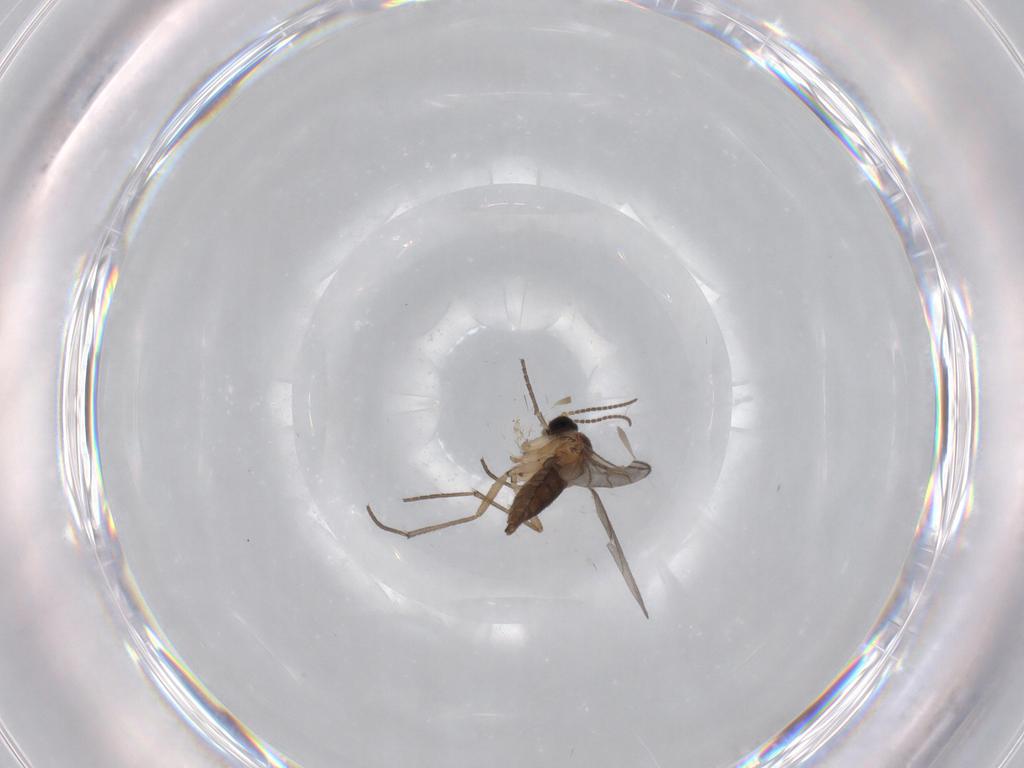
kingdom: Animalia
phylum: Arthropoda
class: Insecta
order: Diptera
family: Sciaridae
